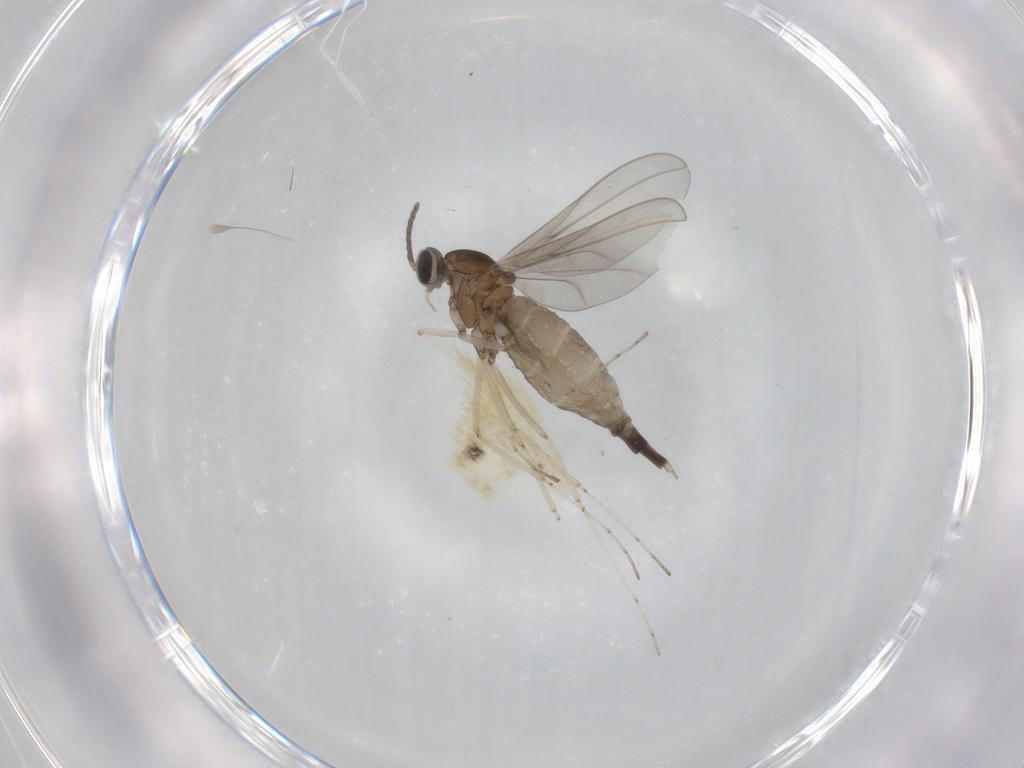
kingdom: Animalia
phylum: Arthropoda
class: Insecta
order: Diptera
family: Cecidomyiidae
